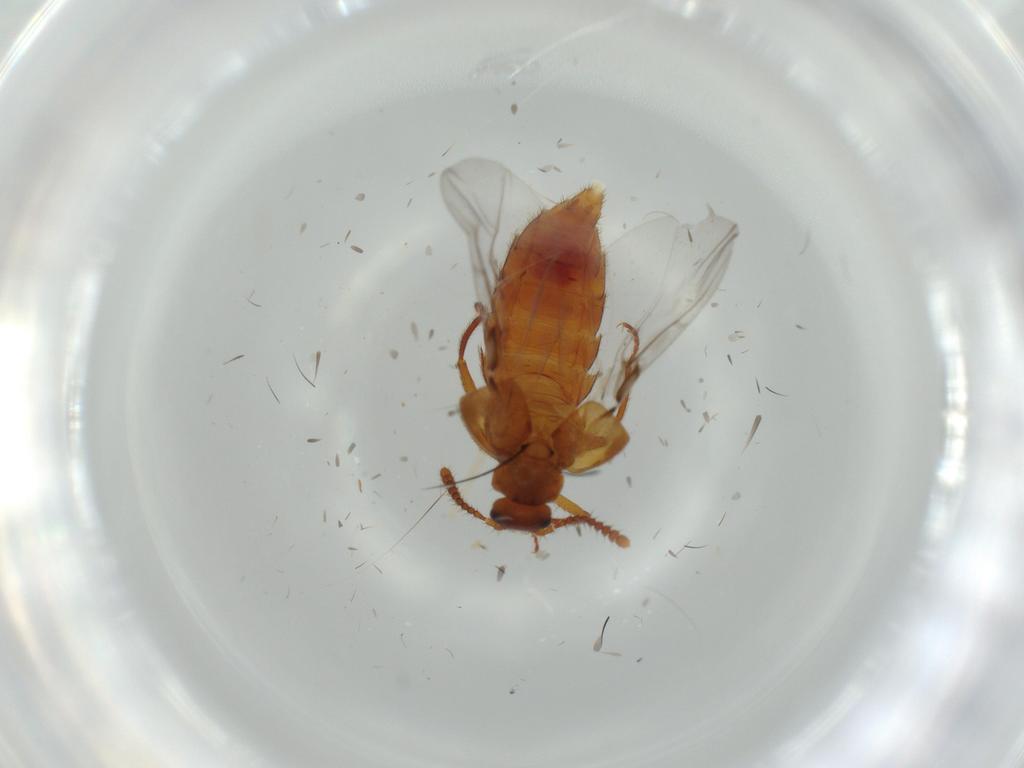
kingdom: Animalia
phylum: Arthropoda
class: Insecta
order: Coleoptera
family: Staphylinidae
